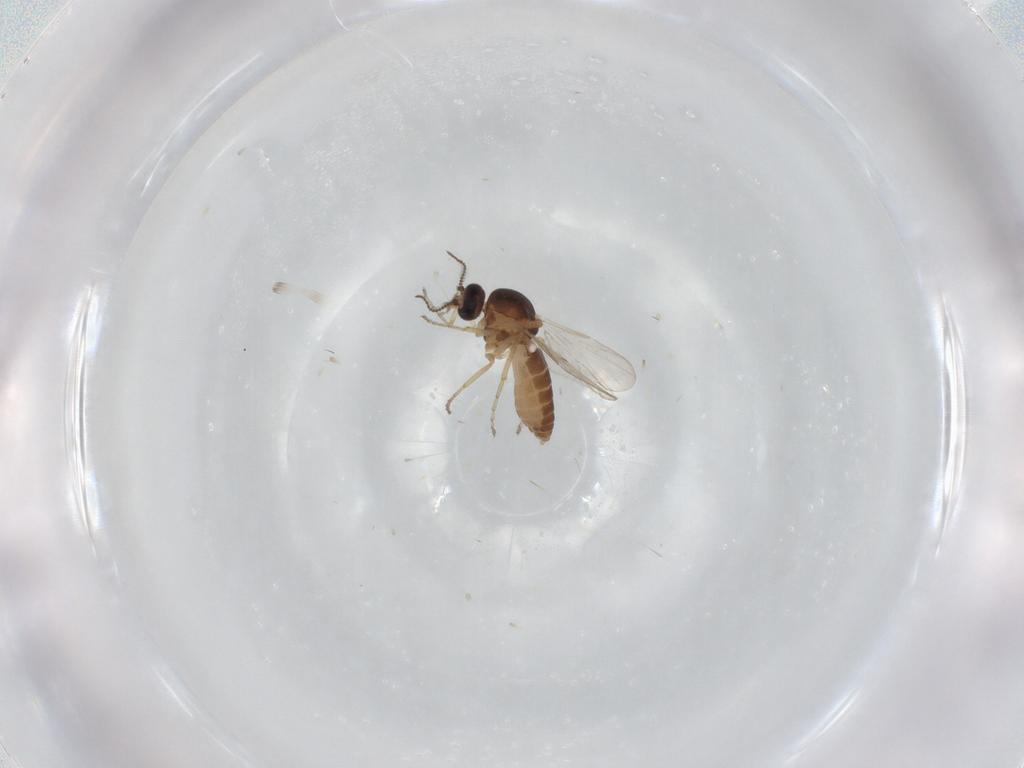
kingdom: Animalia
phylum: Arthropoda
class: Insecta
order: Diptera
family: Ceratopogonidae
